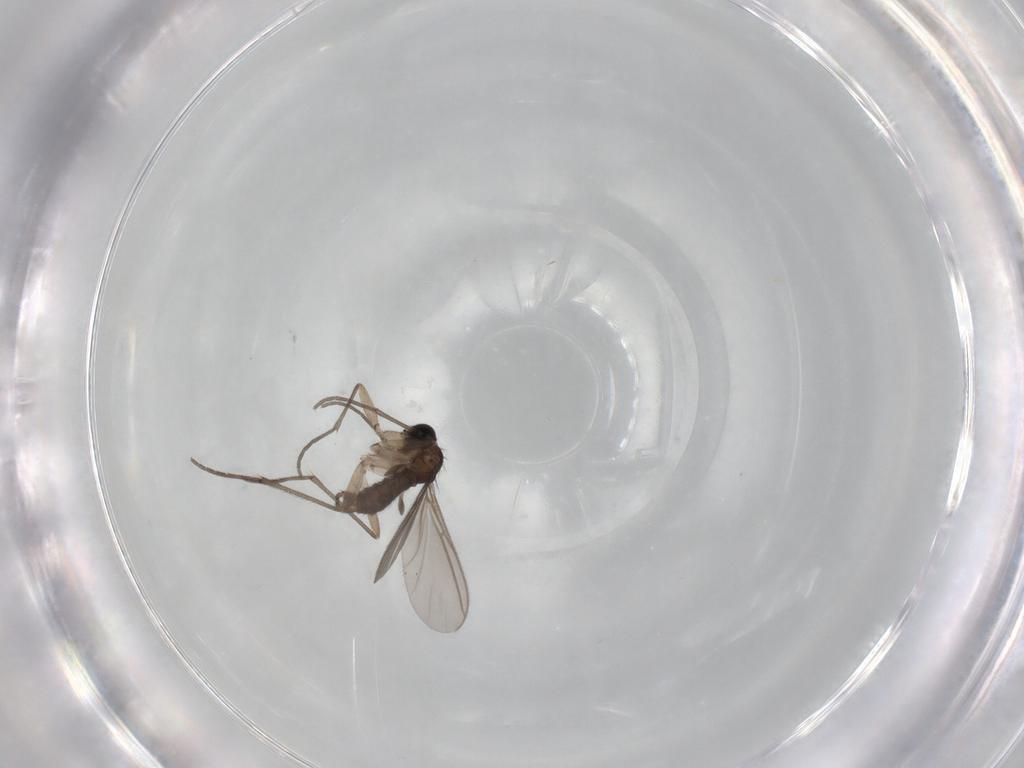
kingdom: Animalia
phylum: Arthropoda
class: Insecta
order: Diptera
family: Sciaridae
